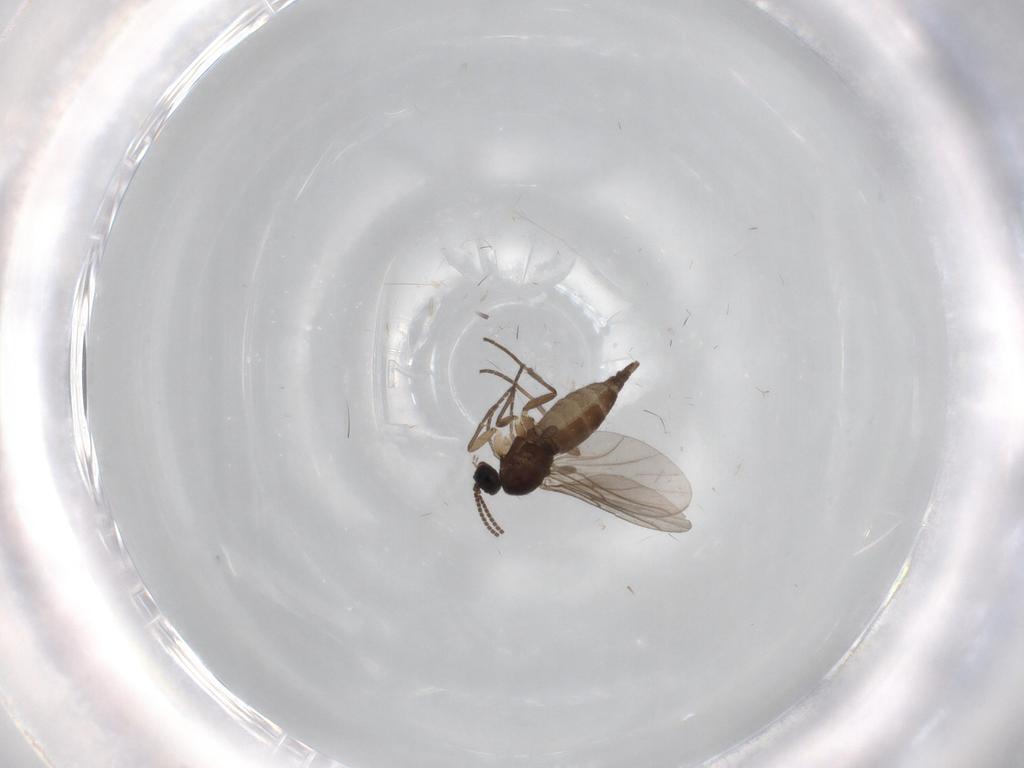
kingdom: Animalia
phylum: Arthropoda
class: Insecta
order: Diptera
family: Sciaridae
